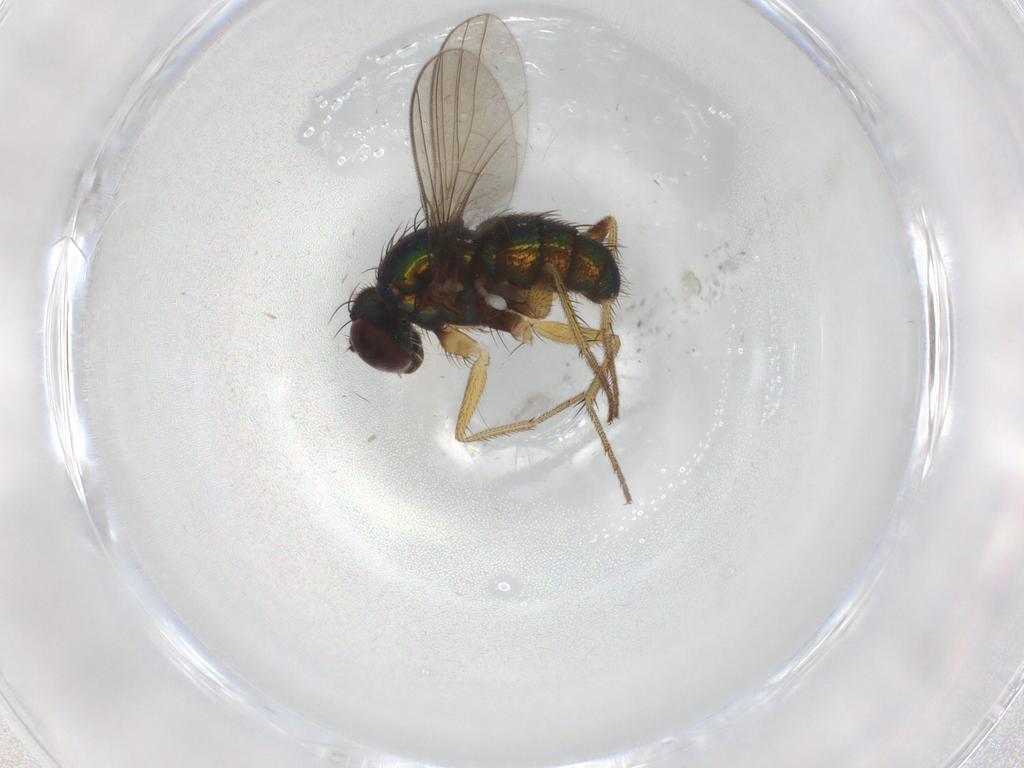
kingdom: Animalia
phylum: Arthropoda
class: Insecta
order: Diptera
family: Dolichopodidae
